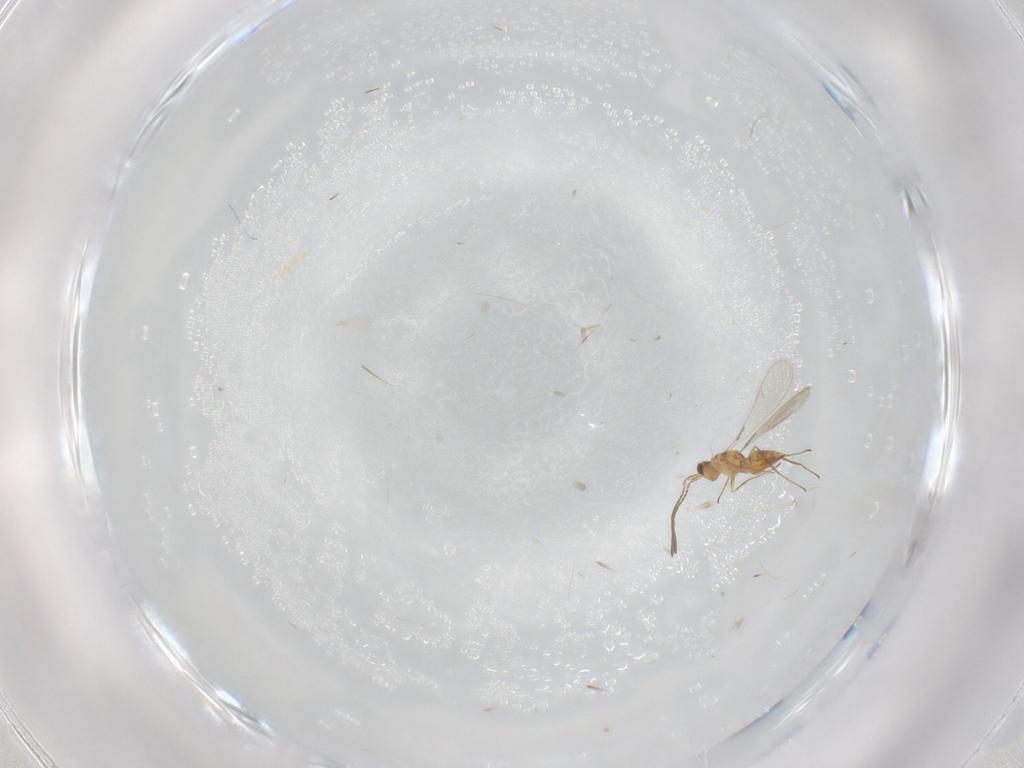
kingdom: Animalia
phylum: Arthropoda
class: Insecta
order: Hymenoptera
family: Mymaridae
